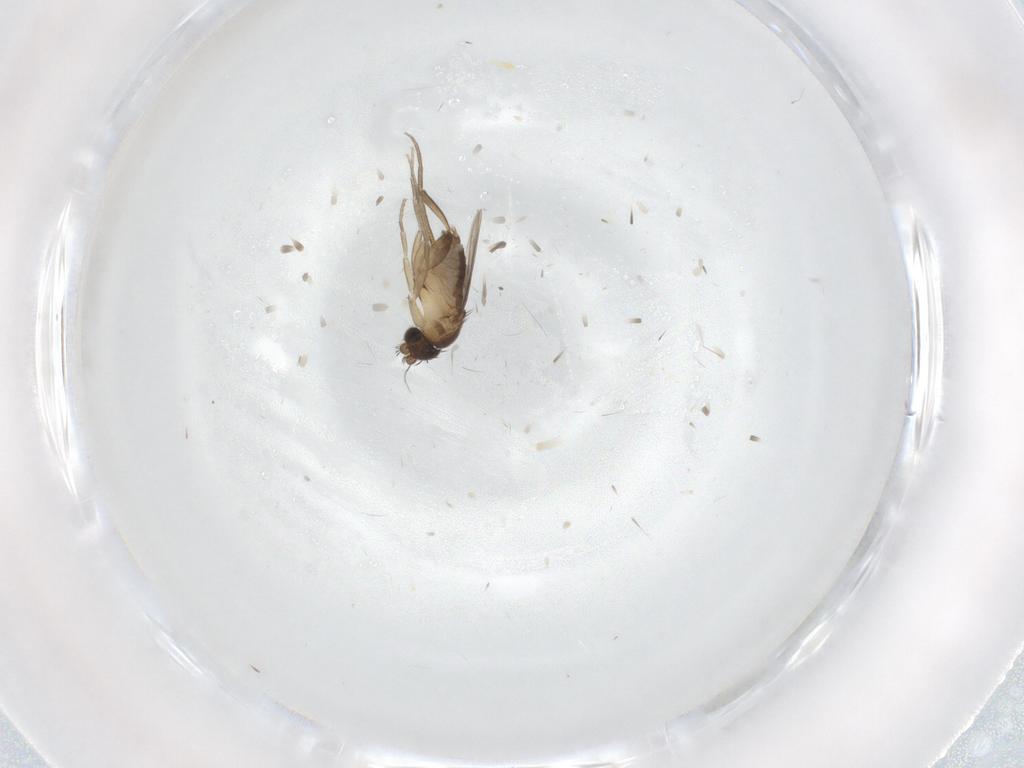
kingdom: Animalia
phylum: Arthropoda
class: Insecta
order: Diptera
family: Phoridae
